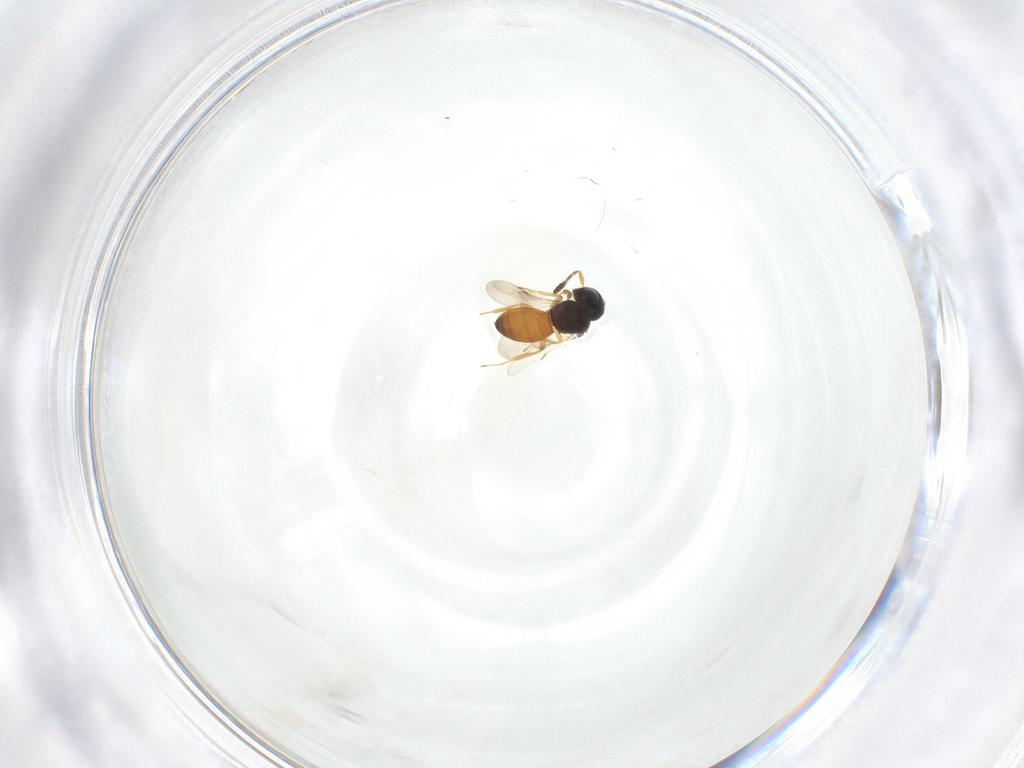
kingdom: Animalia
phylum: Arthropoda
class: Insecta
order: Hymenoptera
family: Scelionidae
